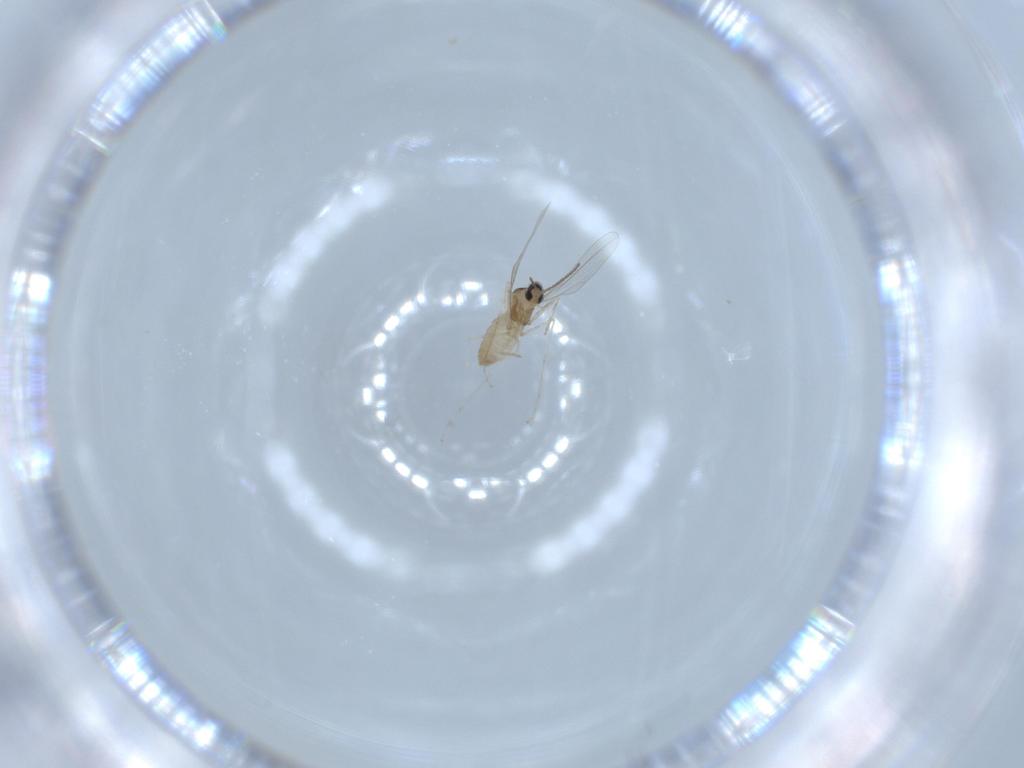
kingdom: Animalia
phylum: Arthropoda
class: Insecta
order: Diptera
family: Cecidomyiidae
